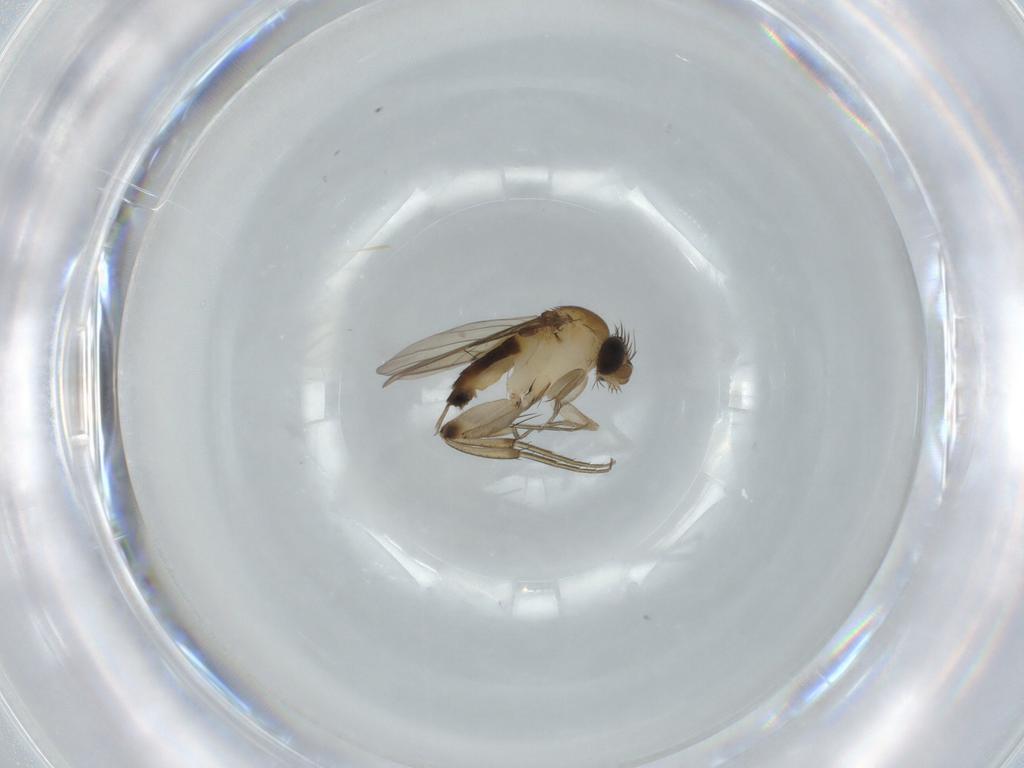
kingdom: Animalia
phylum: Arthropoda
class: Insecta
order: Diptera
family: Phoridae
